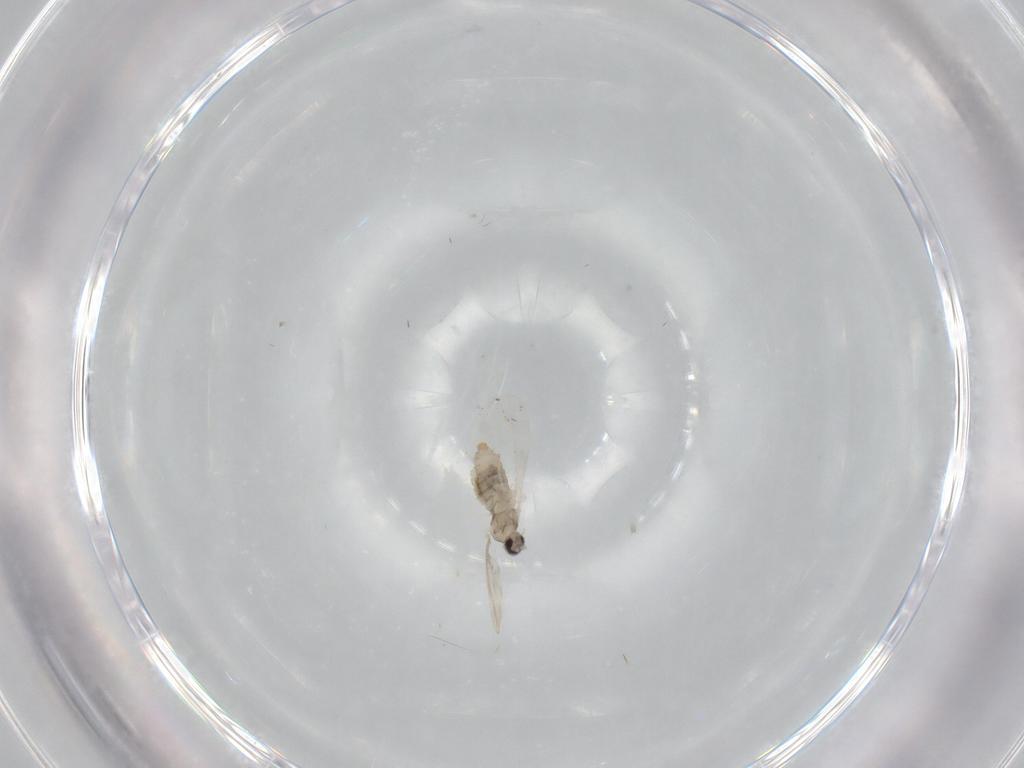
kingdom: Animalia
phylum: Arthropoda
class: Insecta
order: Diptera
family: Cecidomyiidae
